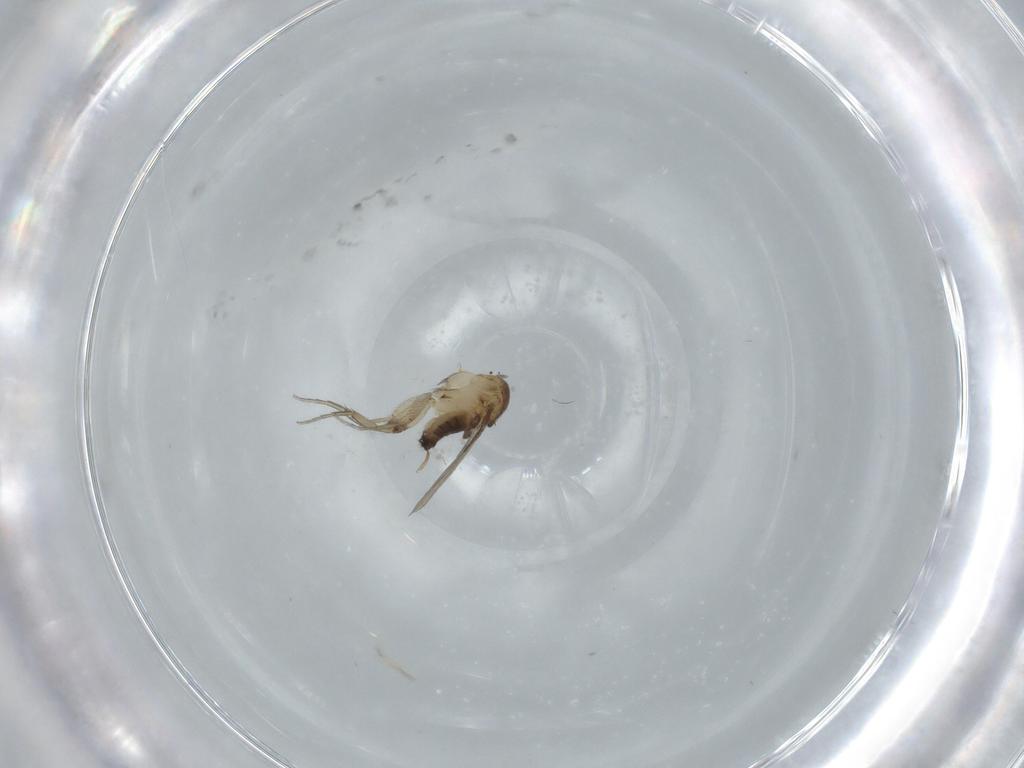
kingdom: Animalia
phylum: Arthropoda
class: Insecta
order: Diptera
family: Phoridae
